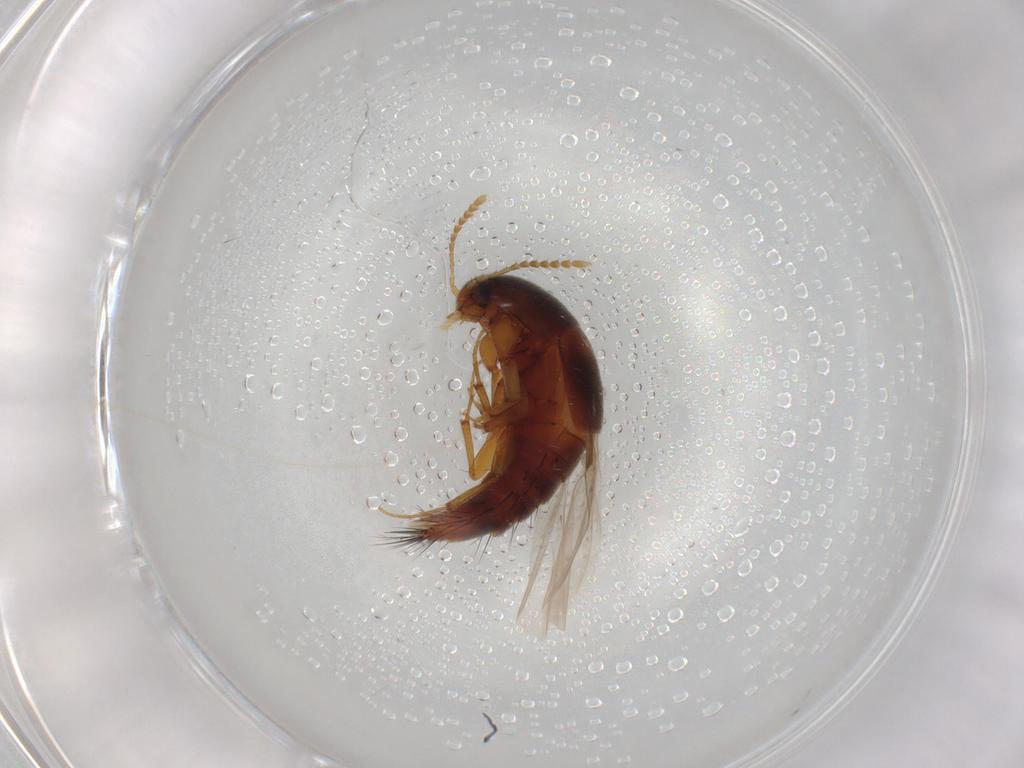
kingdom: Animalia
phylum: Arthropoda
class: Insecta
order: Coleoptera
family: Staphylinidae
